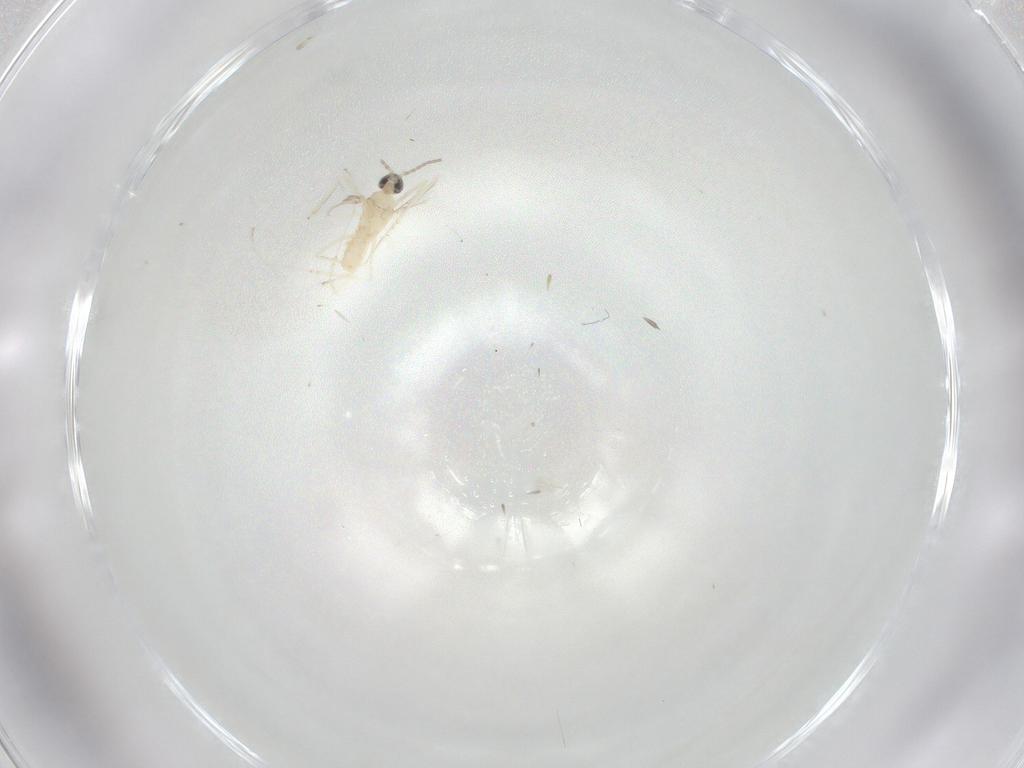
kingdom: Animalia
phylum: Arthropoda
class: Insecta
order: Diptera
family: Cecidomyiidae
